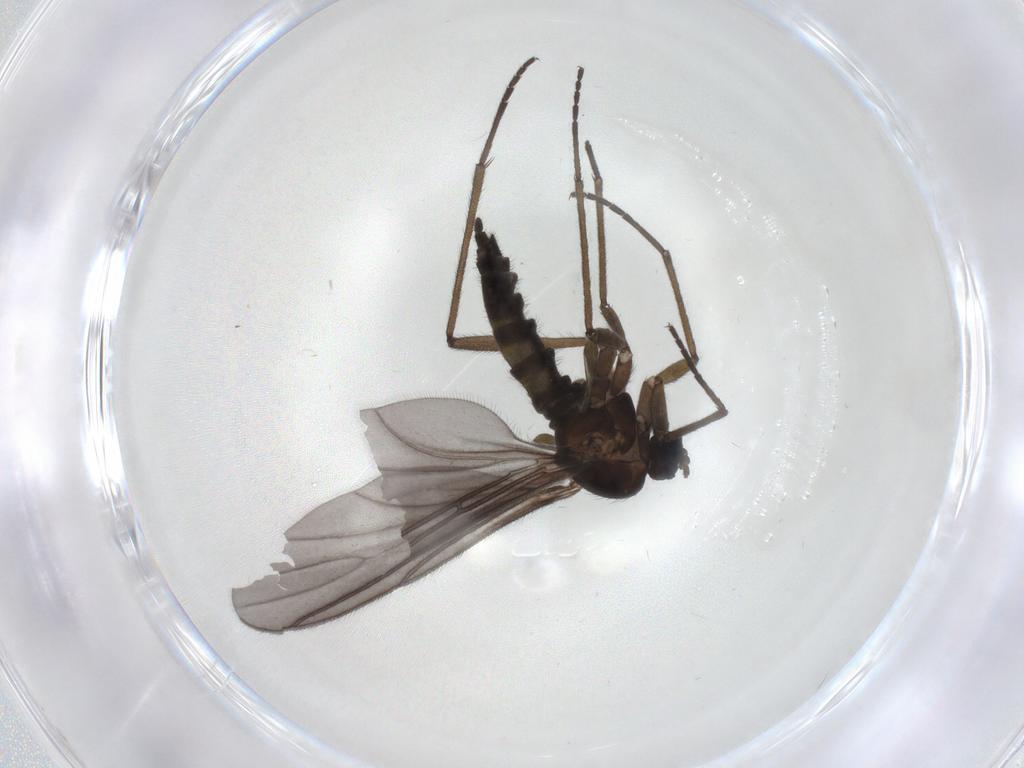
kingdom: Animalia
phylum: Arthropoda
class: Insecta
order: Diptera
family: Sciaridae
